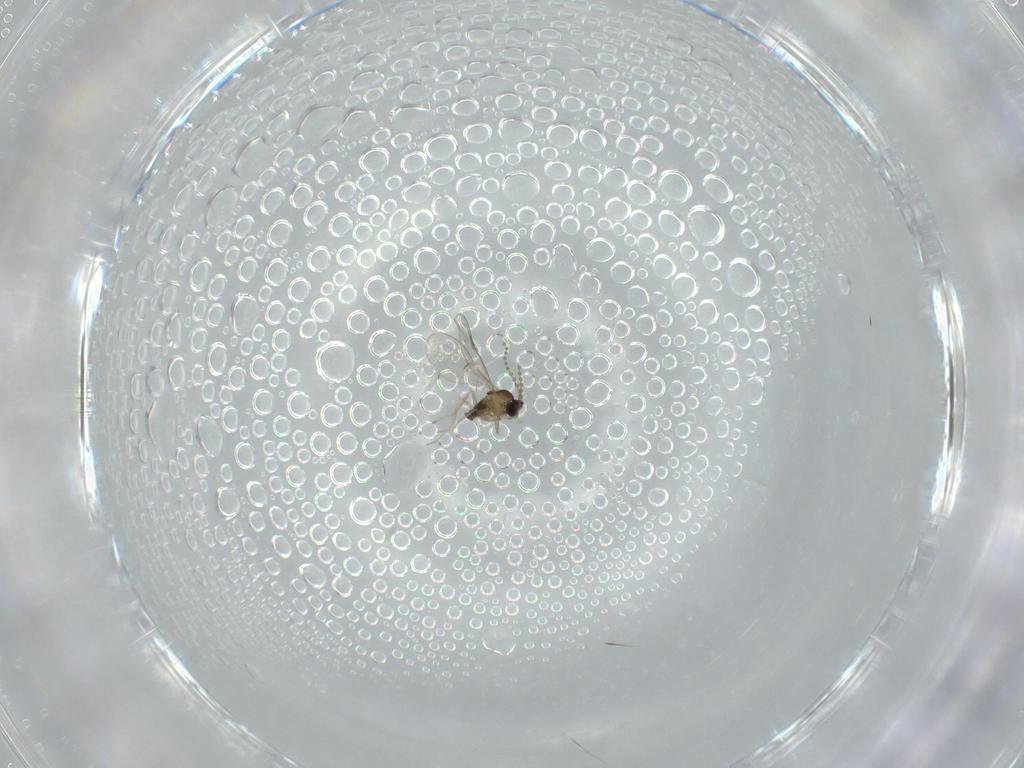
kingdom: Animalia
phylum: Arthropoda
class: Insecta
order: Diptera
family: Cecidomyiidae
